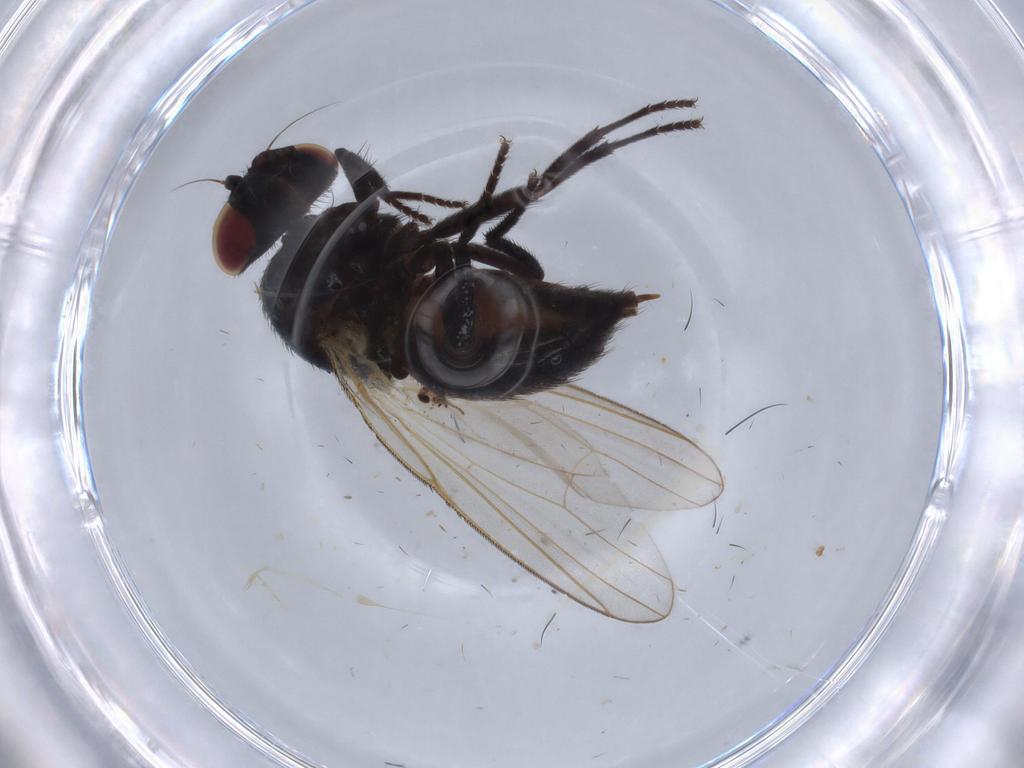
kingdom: Animalia
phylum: Arthropoda
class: Insecta
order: Diptera
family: Lonchaeidae
